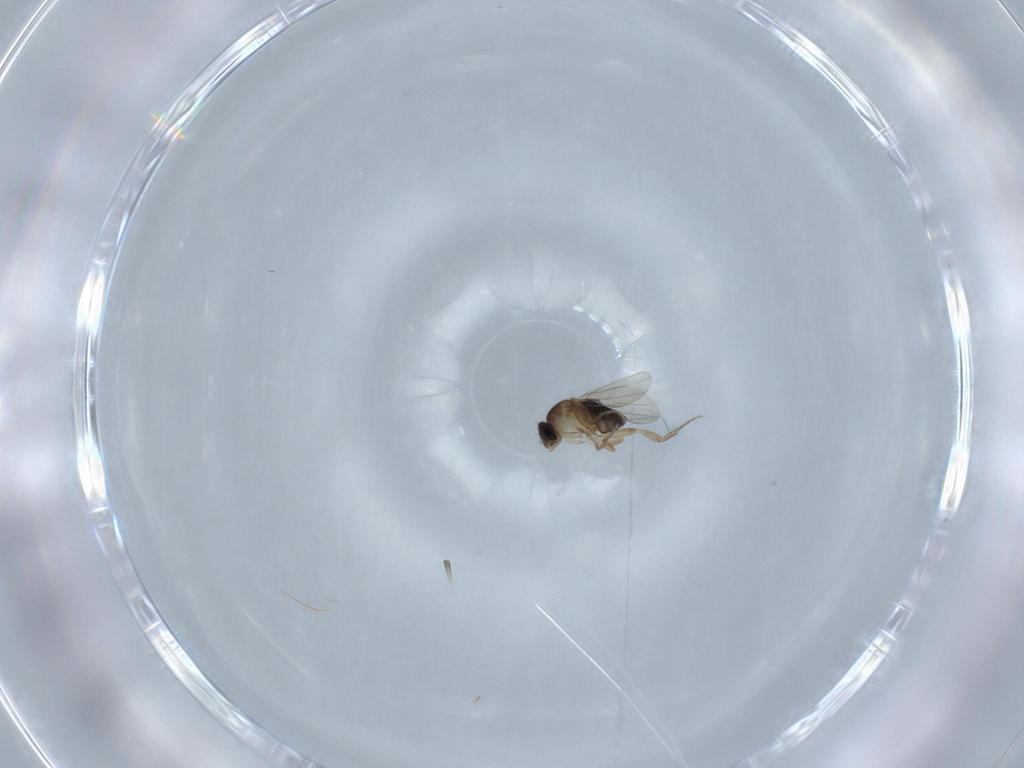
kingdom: Animalia
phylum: Arthropoda
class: Insecta
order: Diptera
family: Phoridae
